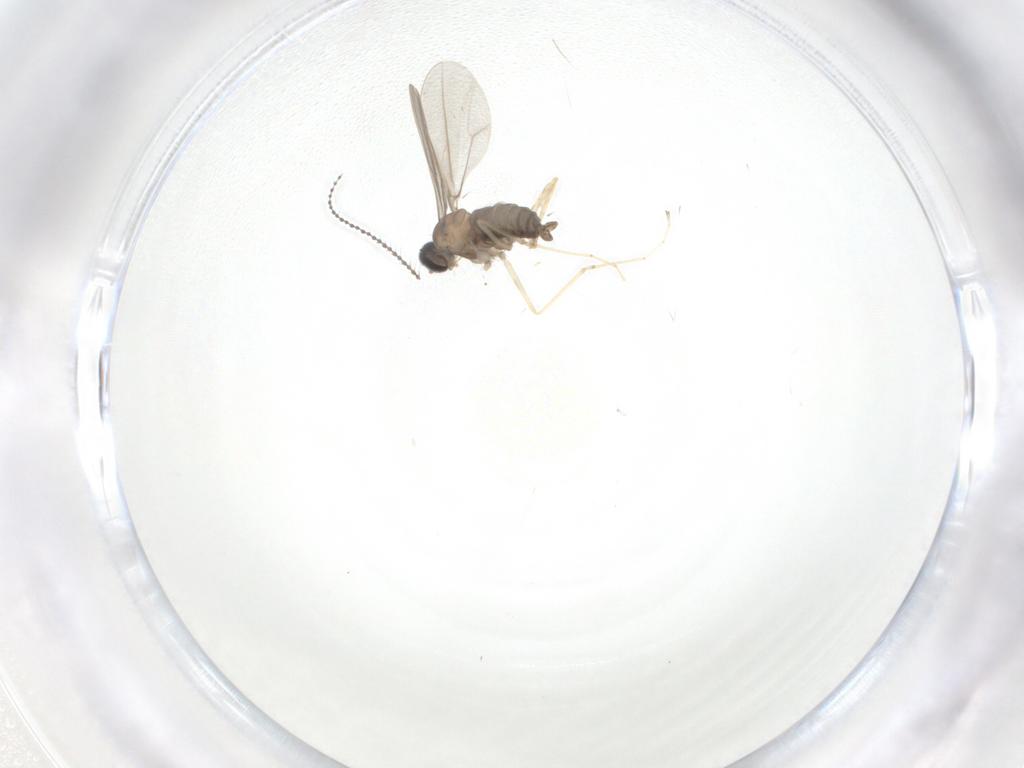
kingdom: Animalia
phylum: Arthropoda
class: Insecta
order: Diptera
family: Cecidomyiidae
